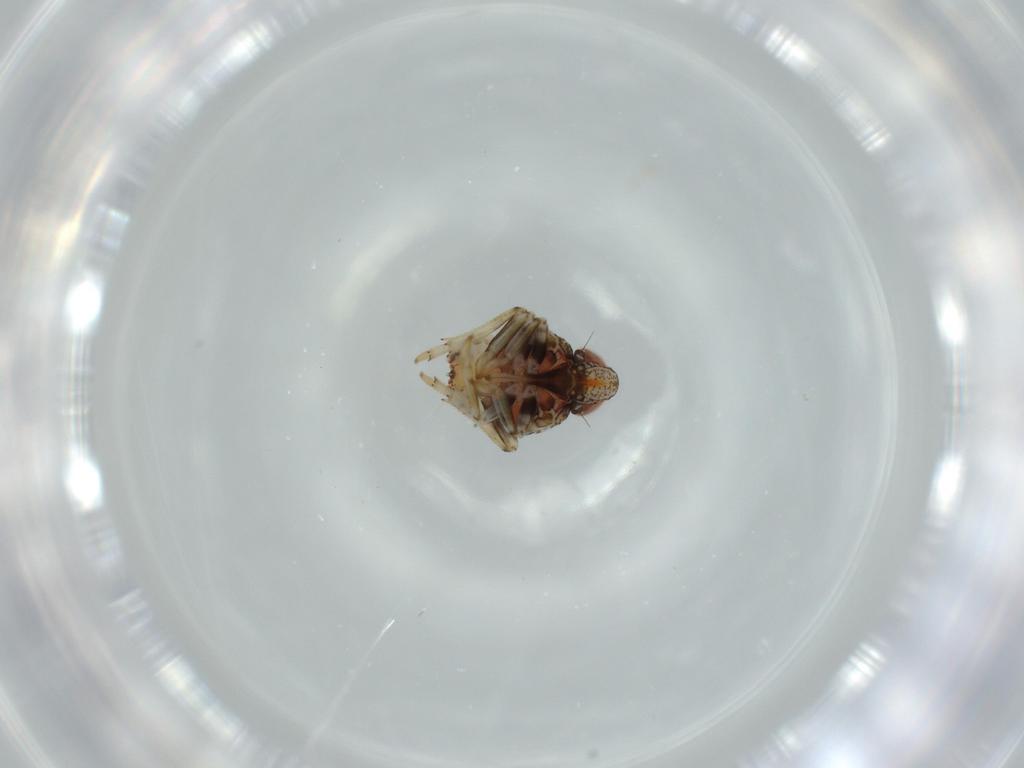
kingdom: Animalia
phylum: Arthropoda
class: Insecta
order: Hemiptera
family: Issidae
